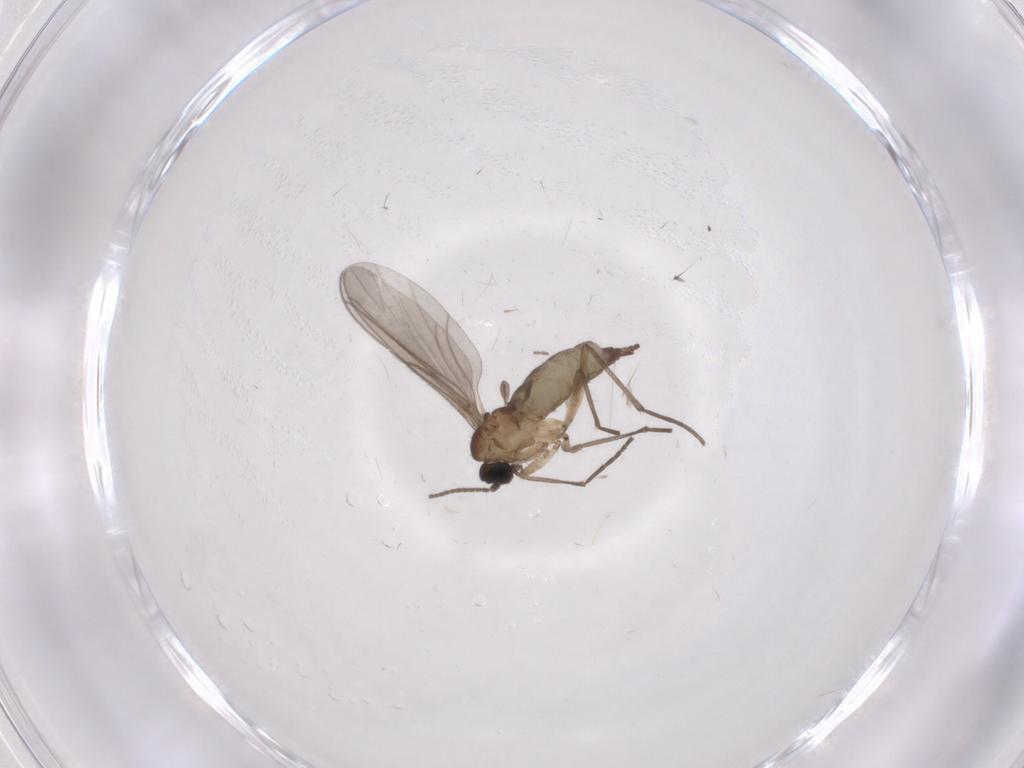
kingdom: Animalia
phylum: Arthropoda
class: Insecta
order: Diptera
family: Sciaridae
